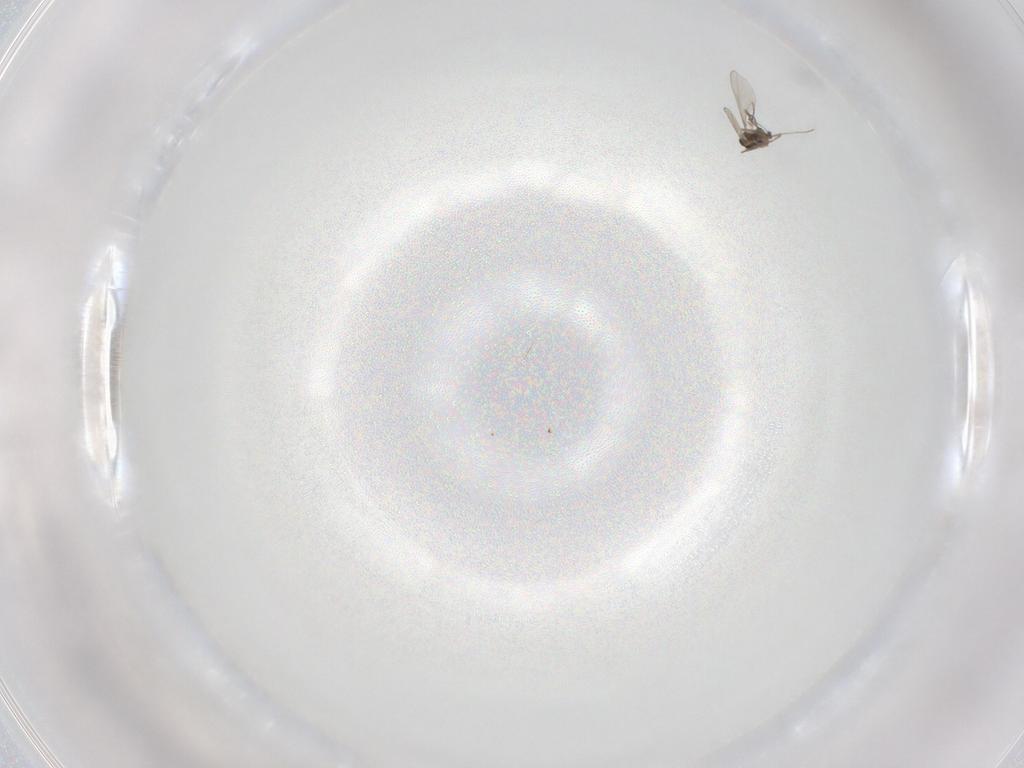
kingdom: Animalia
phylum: Arthropoda
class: Insecta
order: Diptera
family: Cecidomyiidae
